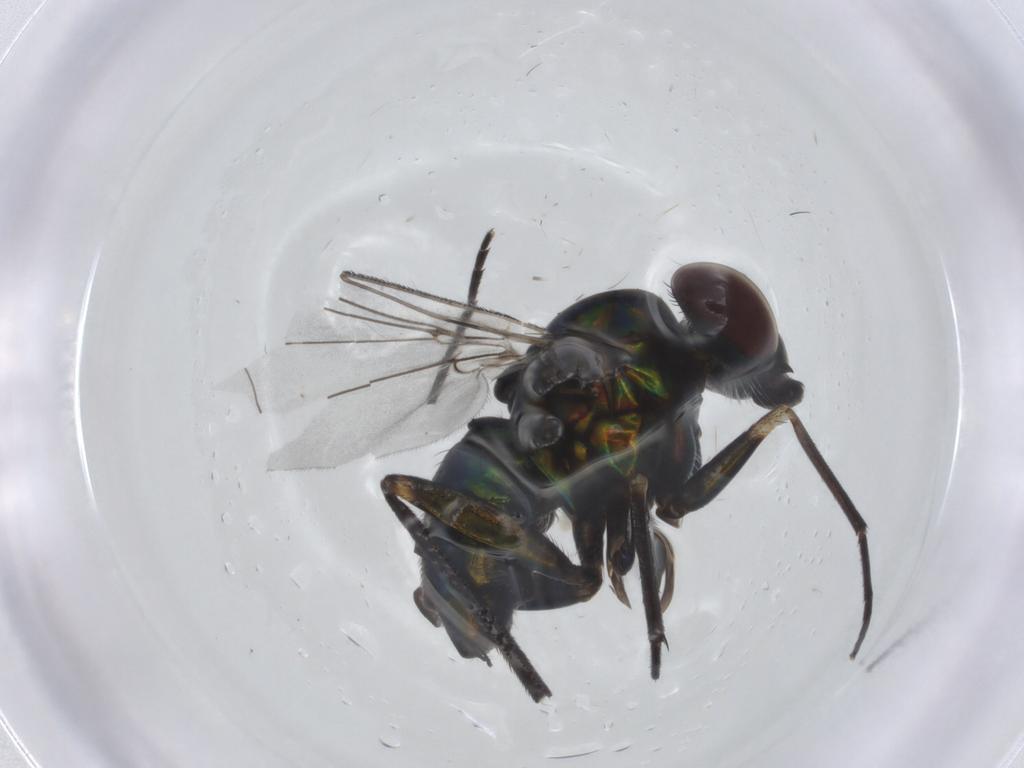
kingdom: Animalia
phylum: Arthropoda
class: Insecta
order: Diptera
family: Dolichopodidae
